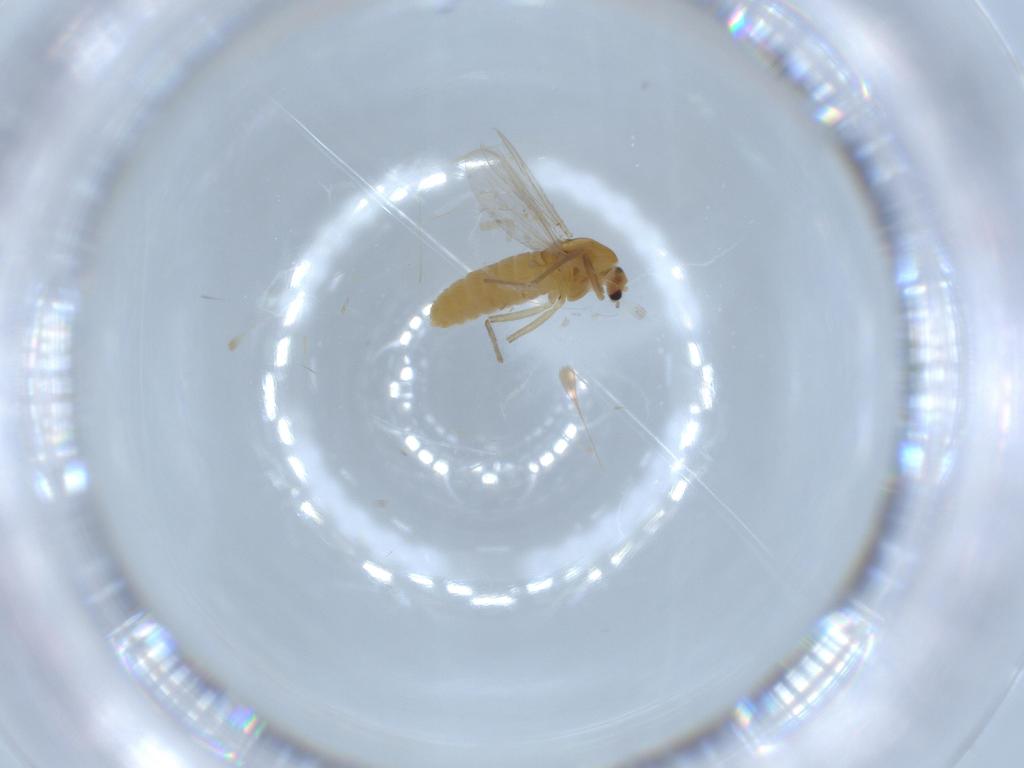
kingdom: Animalia
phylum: Arthropoda
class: Insecta
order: Diptera
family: Chironomidae
